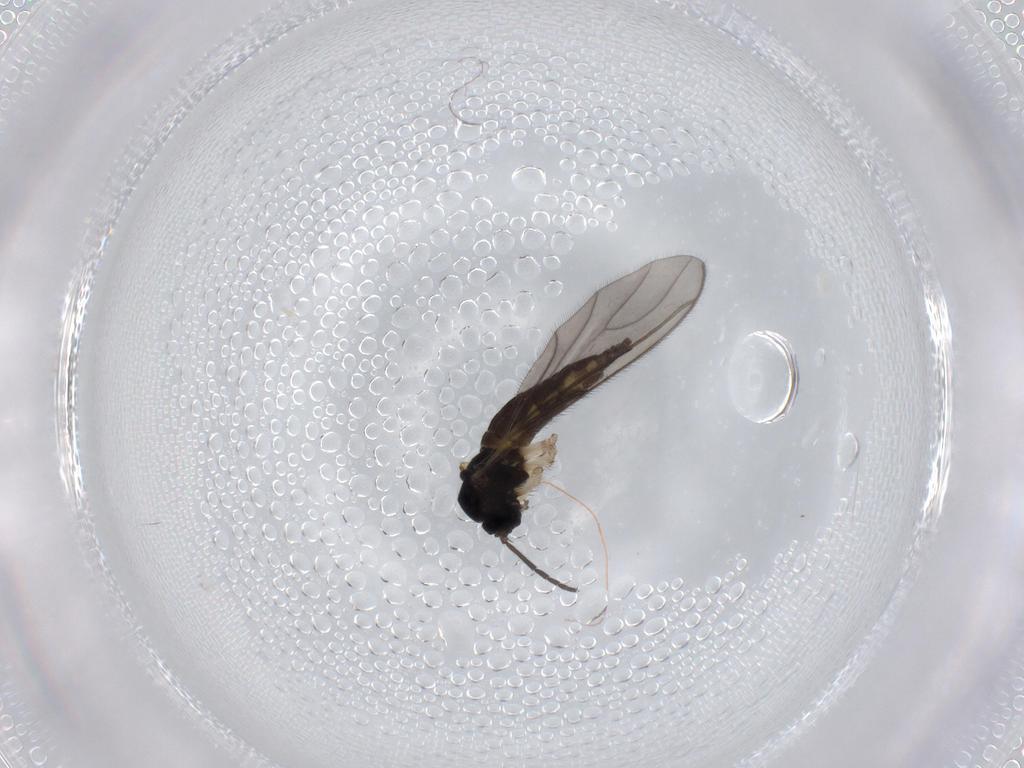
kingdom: Animalia
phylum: Arthropoda
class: Insecta
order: Diptera
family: Sciaridae
